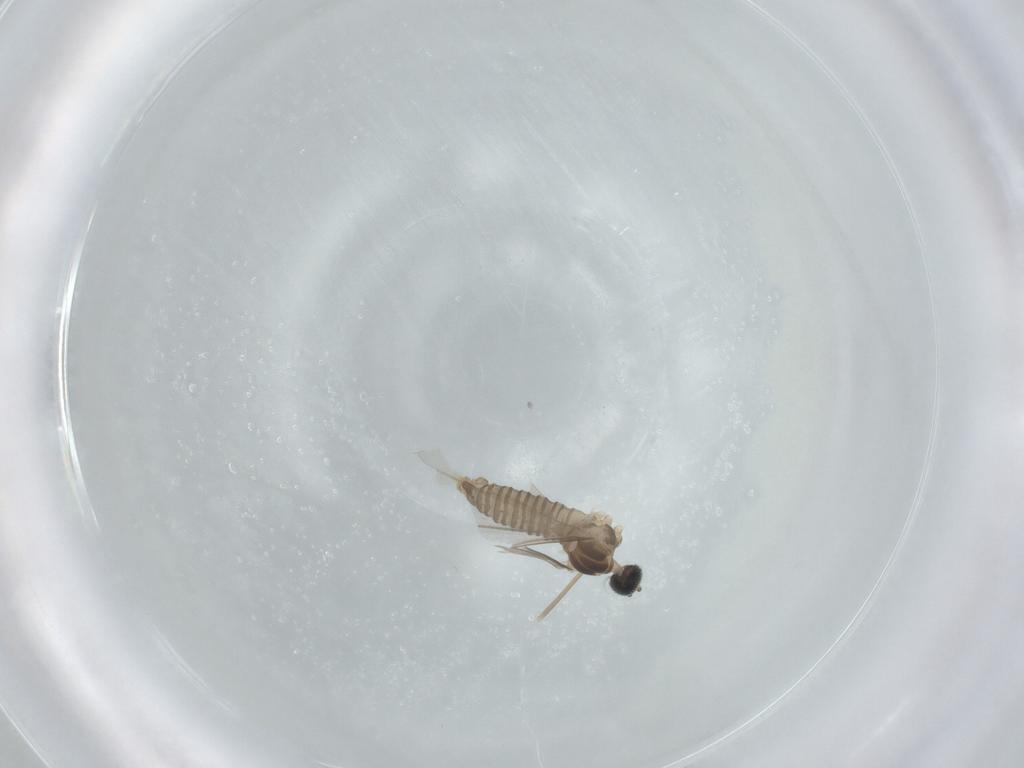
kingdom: Animalia
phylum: Arthropoda
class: Insecta
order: Diptera
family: Cecidomyiidae
